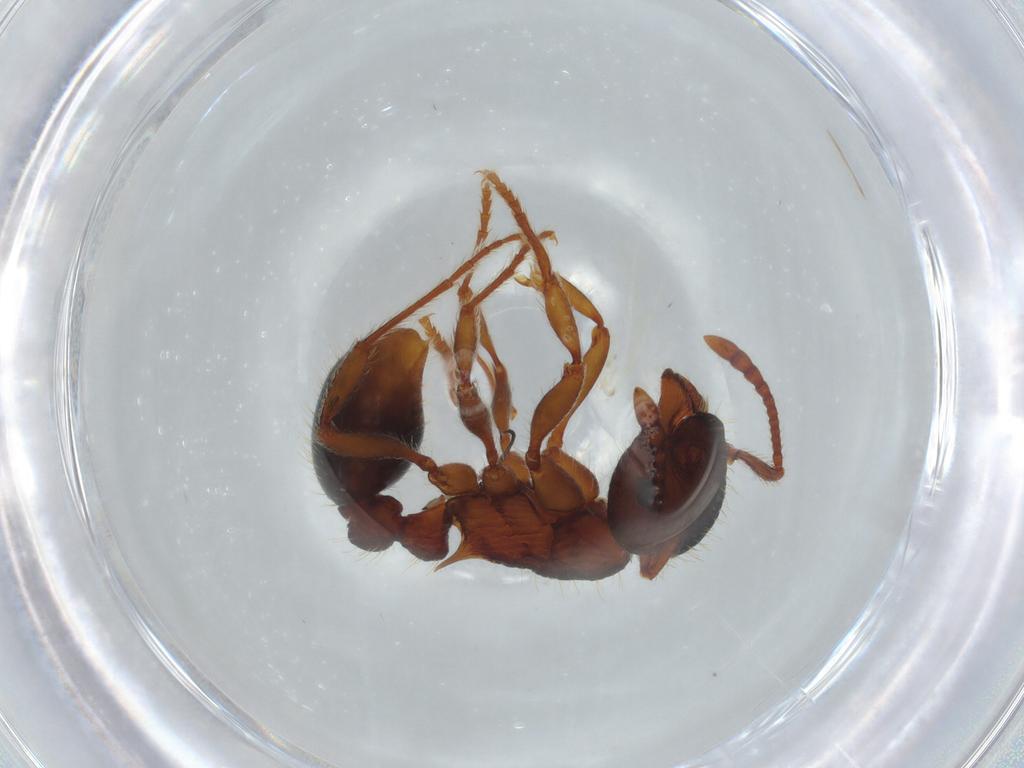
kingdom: Animalia
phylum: Arthropoda
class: Insecta
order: Hymenoptera
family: Formicidae
